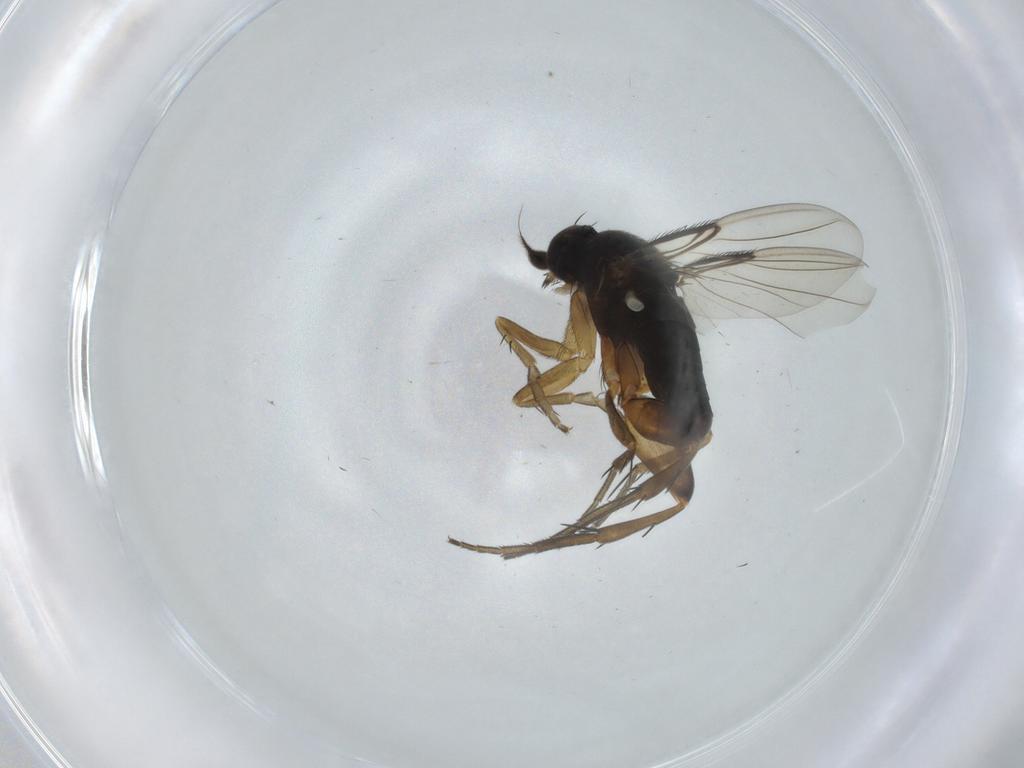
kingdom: Animalia
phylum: Arthropoda
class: Insecta
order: Diptera
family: Phoridae
